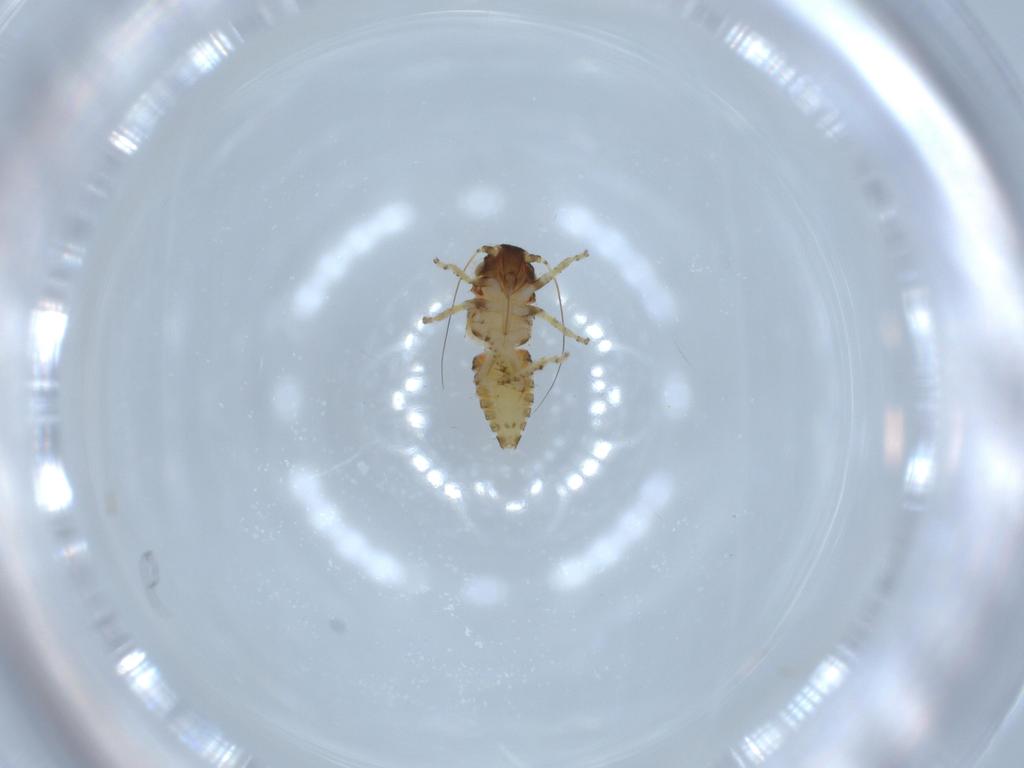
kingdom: Animalia
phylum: Arthropoda
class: Insecta
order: Hemiptera
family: Cicadellidae
